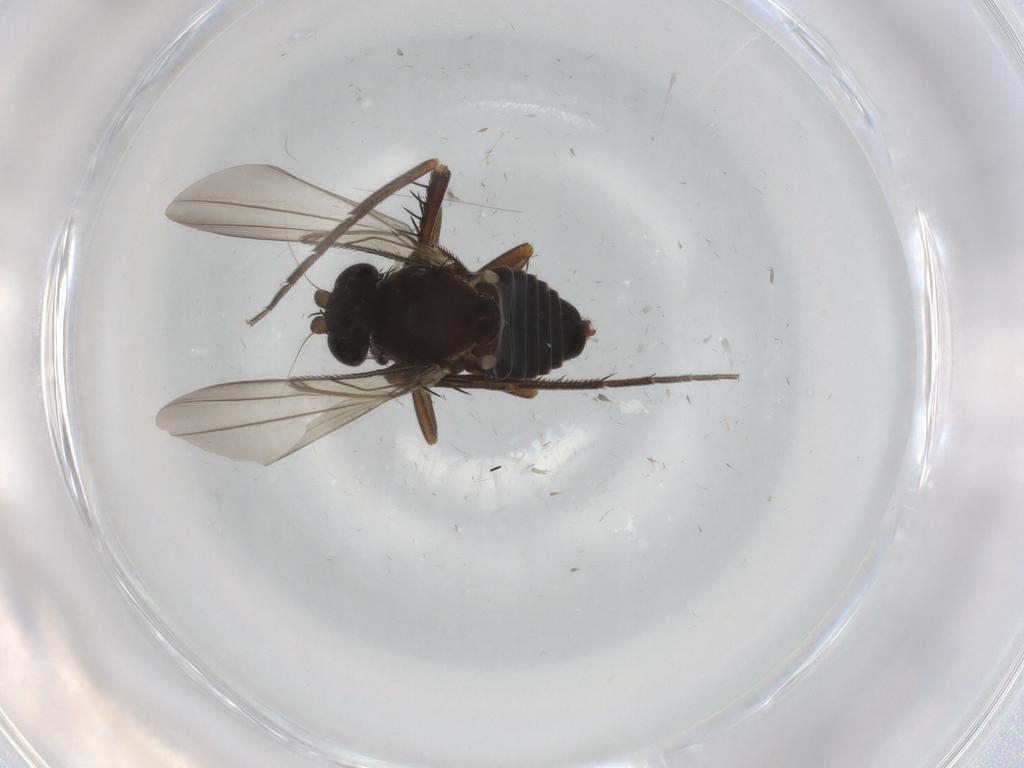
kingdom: Animalia
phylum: Arthropoda
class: Insecta
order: Diptera
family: Phoridae
